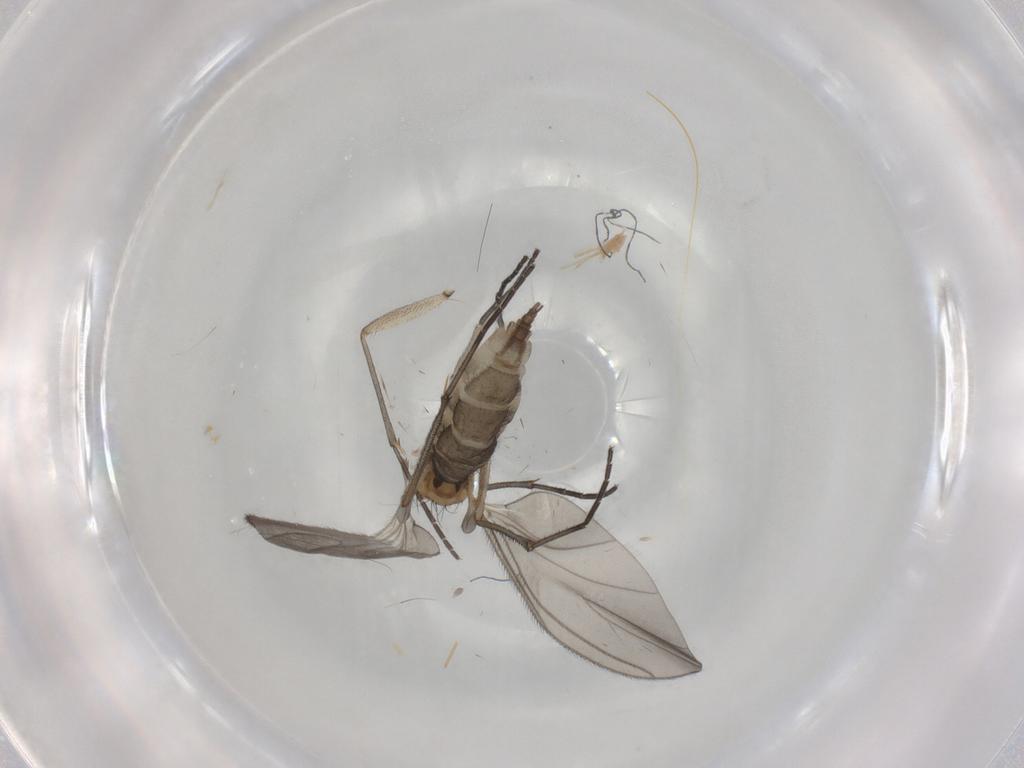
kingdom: Animalia
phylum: Arthropoda
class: Insecta
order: Diptera
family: Sciaridae
